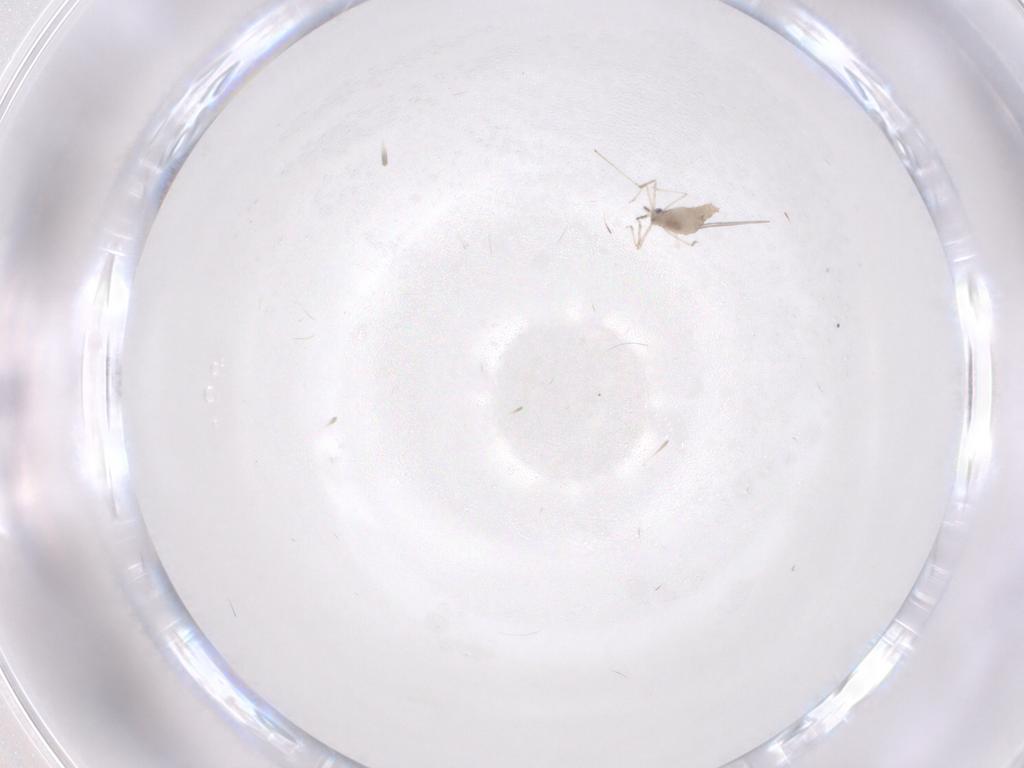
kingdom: Animalia
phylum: Arthropoda
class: Insecta
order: Diptera
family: Cecidomyiidae
